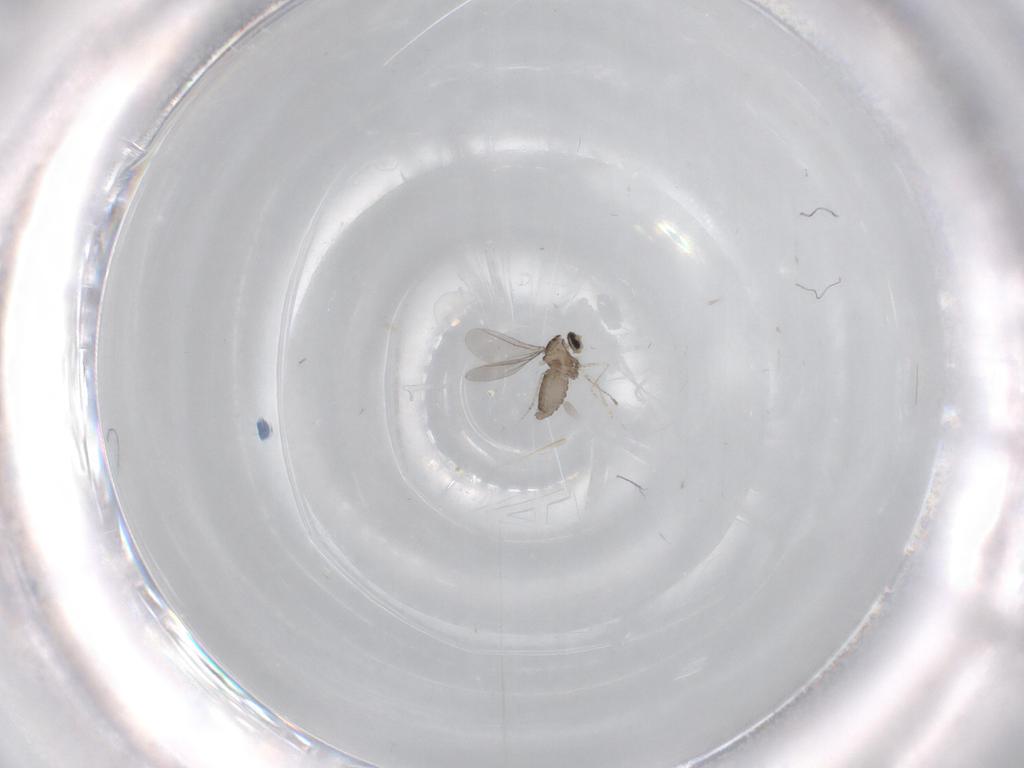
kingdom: Animalia
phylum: Arthropoda
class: Insecta
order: Diptera
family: Cecidomyiidae
